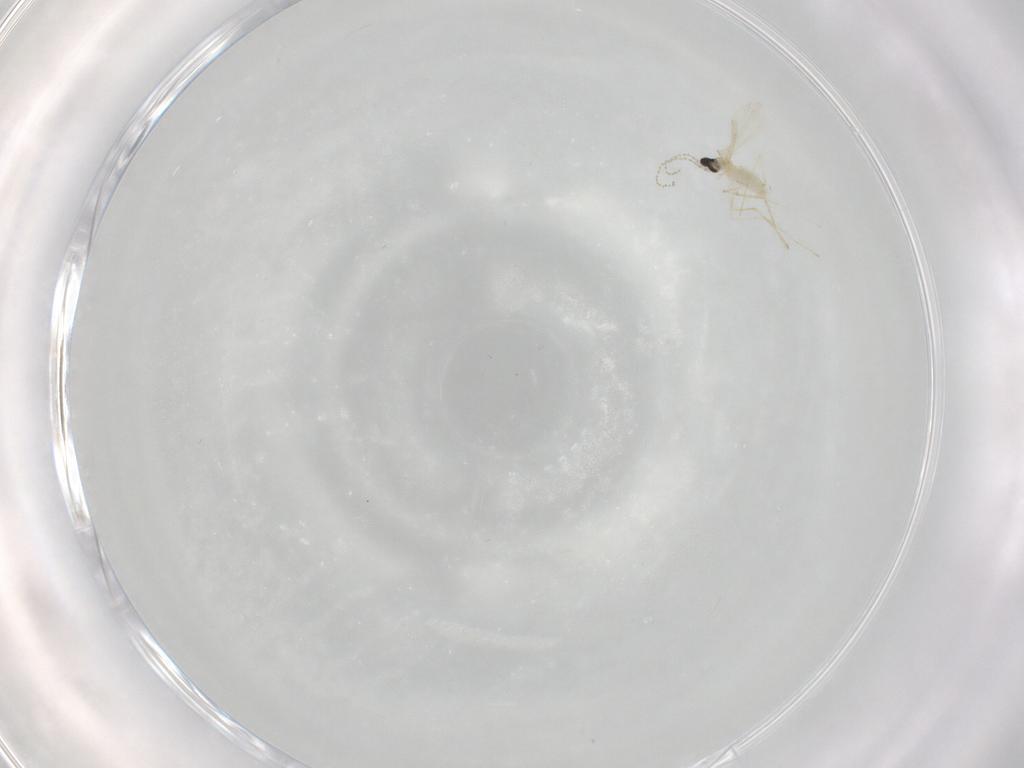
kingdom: Animalia
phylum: Arthropoda
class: Insecta
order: Diptera
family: Cecidomyiidae
